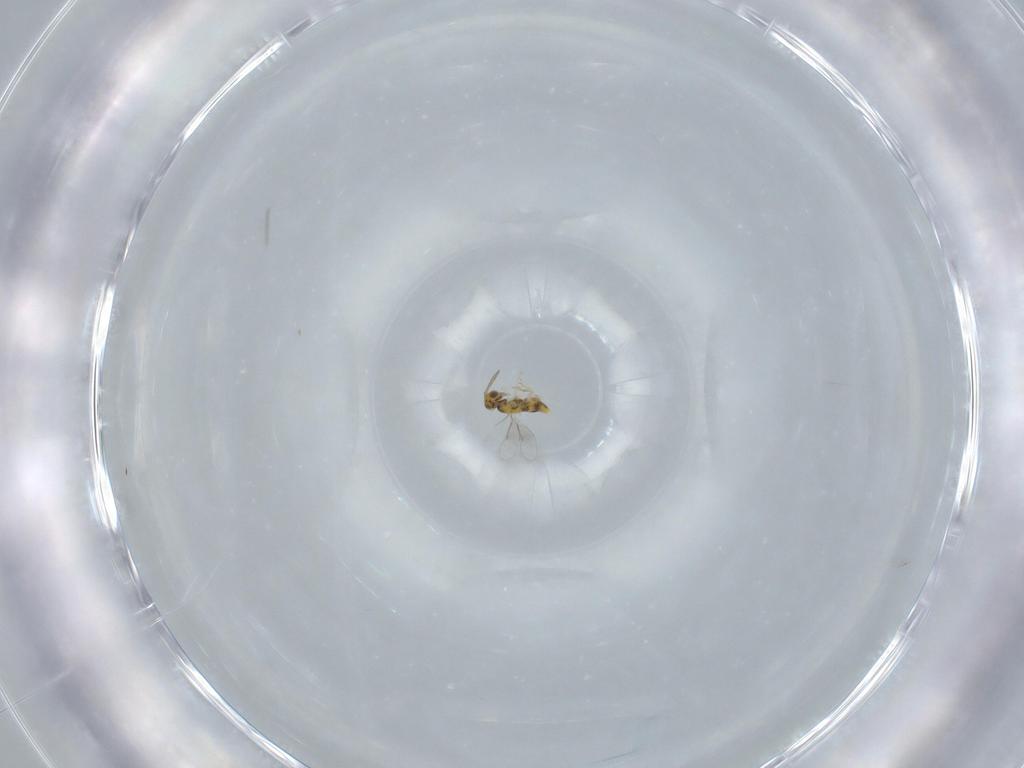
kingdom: Animalia
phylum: Arthropoda
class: Insecta
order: Hymenoptera
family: Aphelinidae
